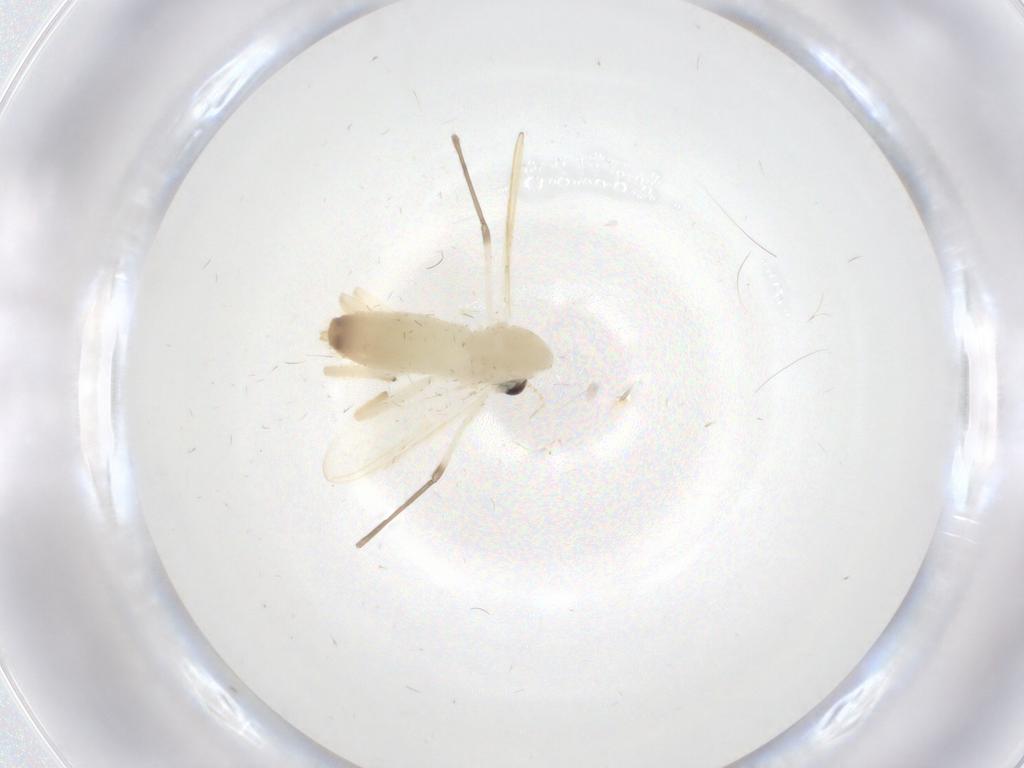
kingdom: Animalia
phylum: Arthropoda
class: Insecta
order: Diptera
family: Chironomidae
